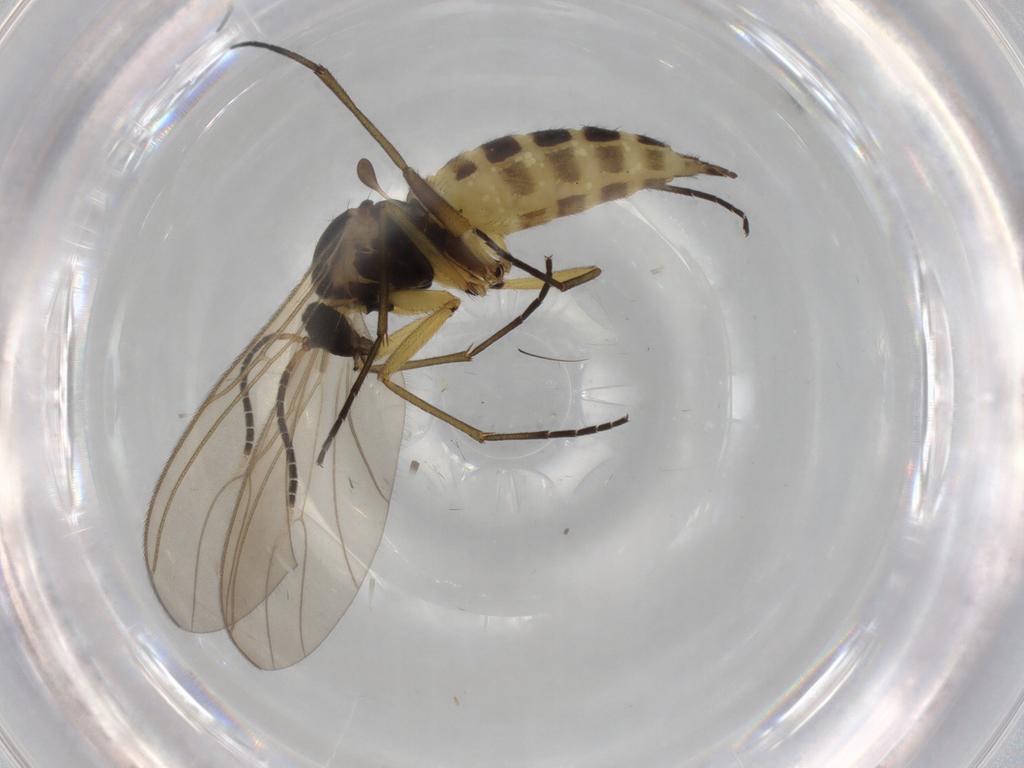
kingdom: Animalia
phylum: Arthropoda
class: Insecta
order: Diptera
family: Sciaridae
